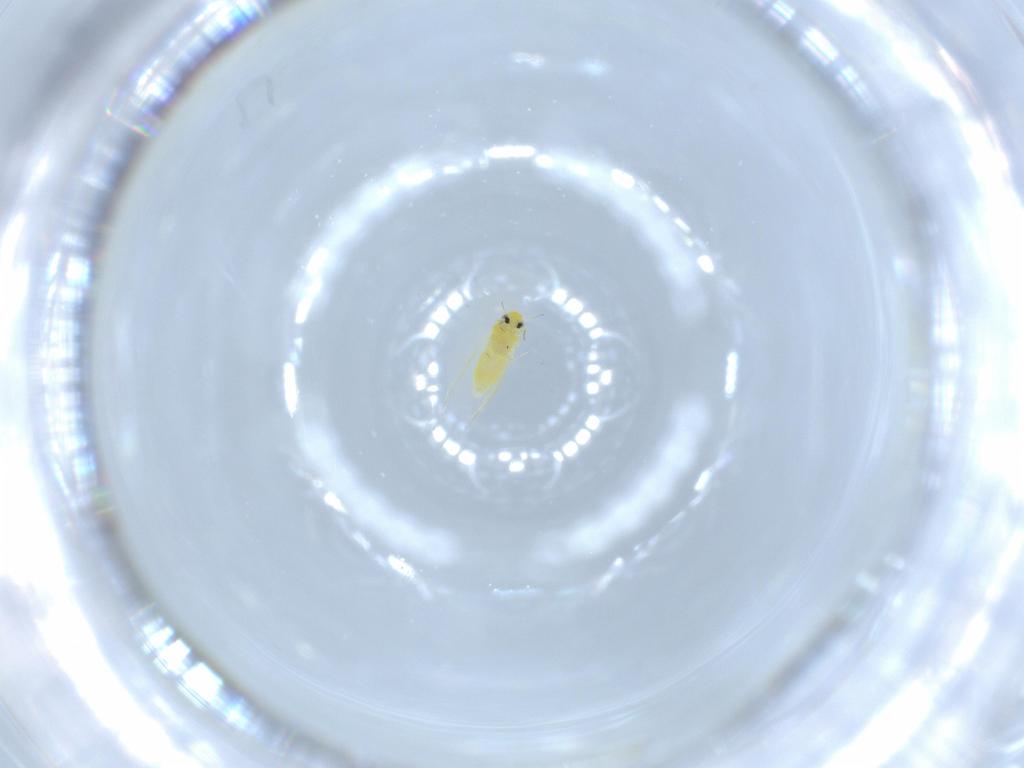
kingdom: Animalia
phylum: Arthropoda
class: Insecta
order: Hemiptera
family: Aleyrodidae
